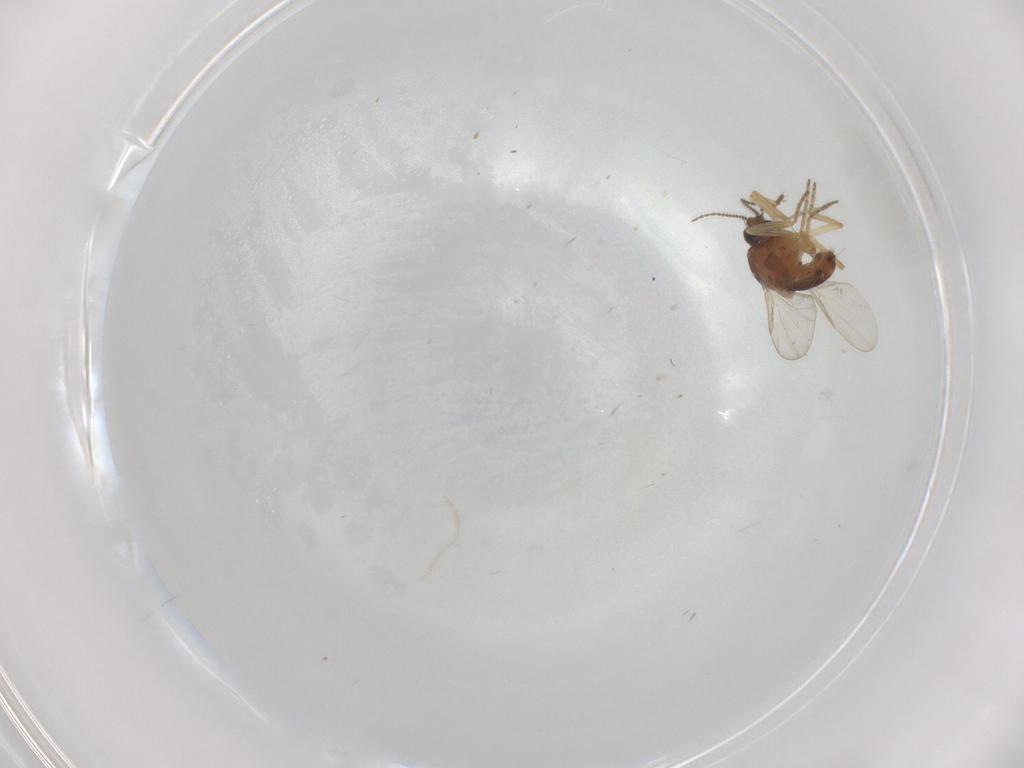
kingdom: Animalia
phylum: Arthropoda
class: Insecta
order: Diptera
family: Ceratopogonidae
